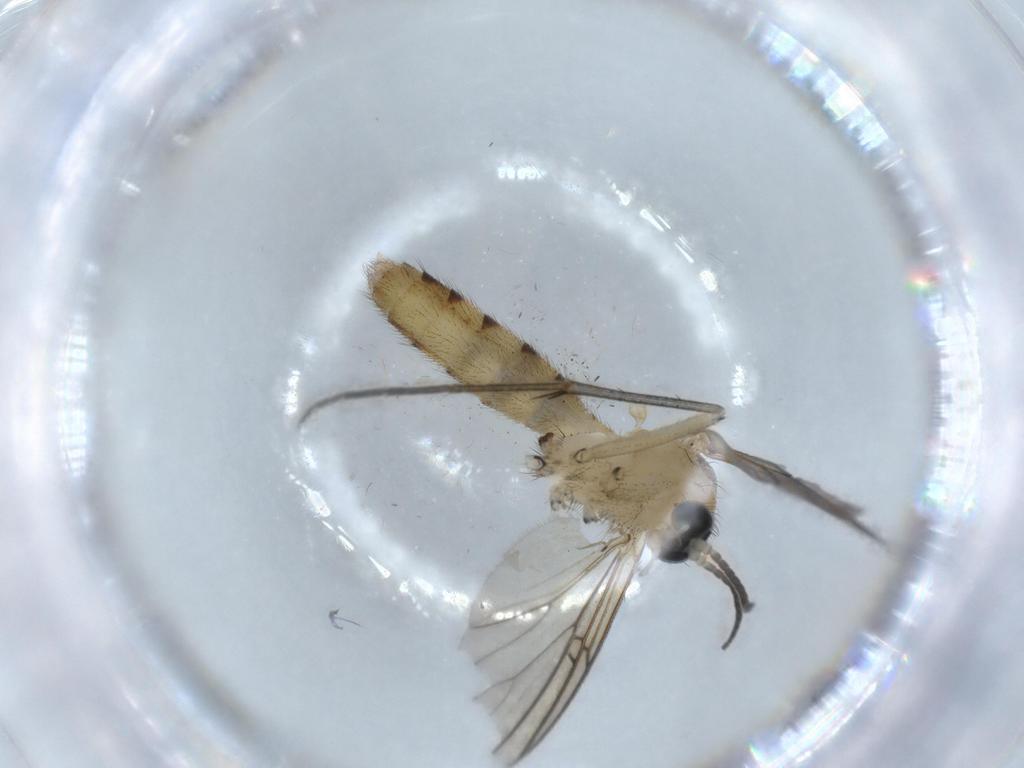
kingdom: Animalia
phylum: Arthropoda
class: Insecta
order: Diptera
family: Mycetophilidae
